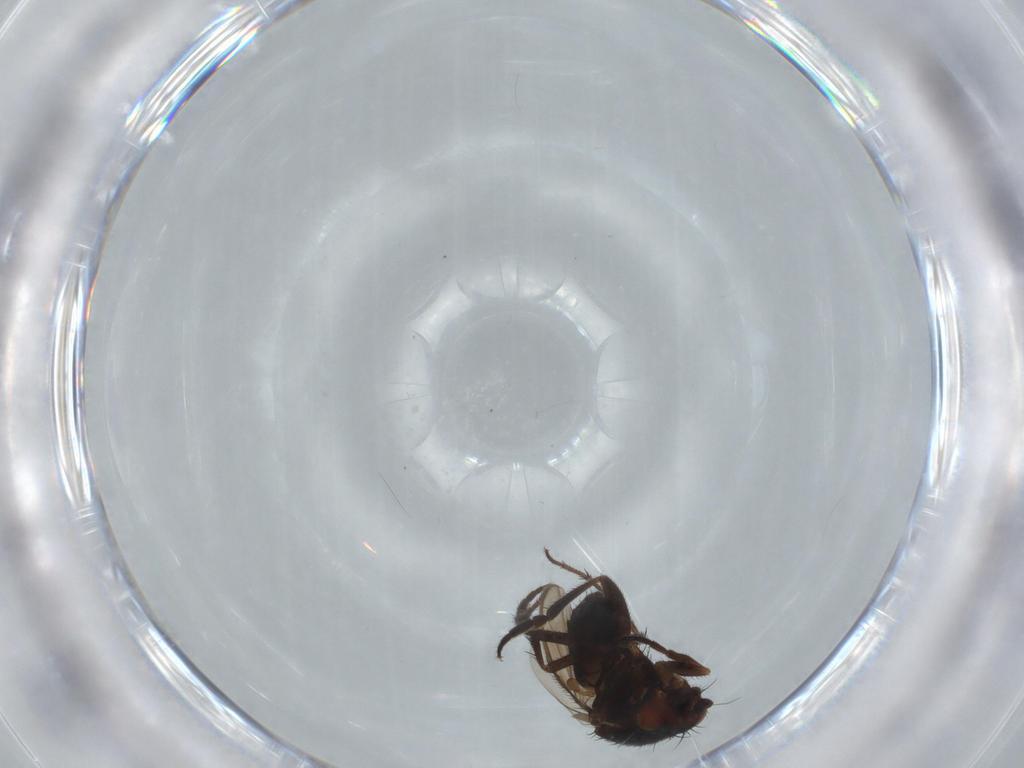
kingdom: Animalia
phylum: Arthropoda
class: Insecta
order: Diptera
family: Sphaeroceridae
